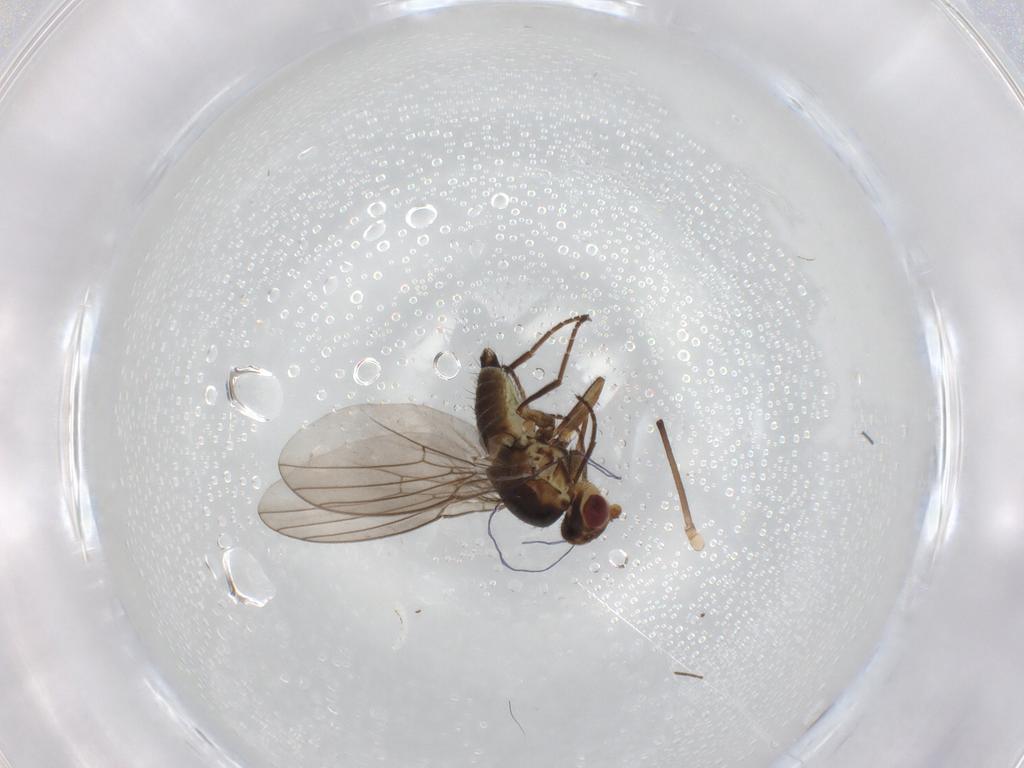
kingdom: Animalia
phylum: Arthropoda
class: Insecta
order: Diptera
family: Agromyzidae
